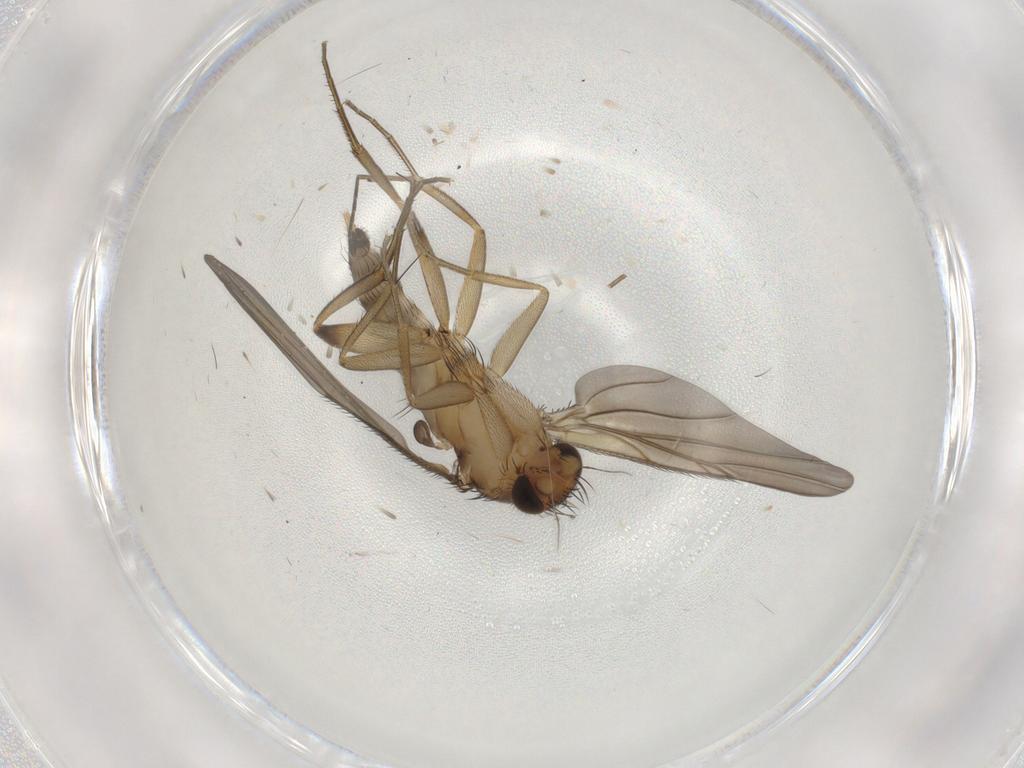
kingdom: Animalia
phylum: Arthropoda
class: Insecta
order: Diptera
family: Phoridae
